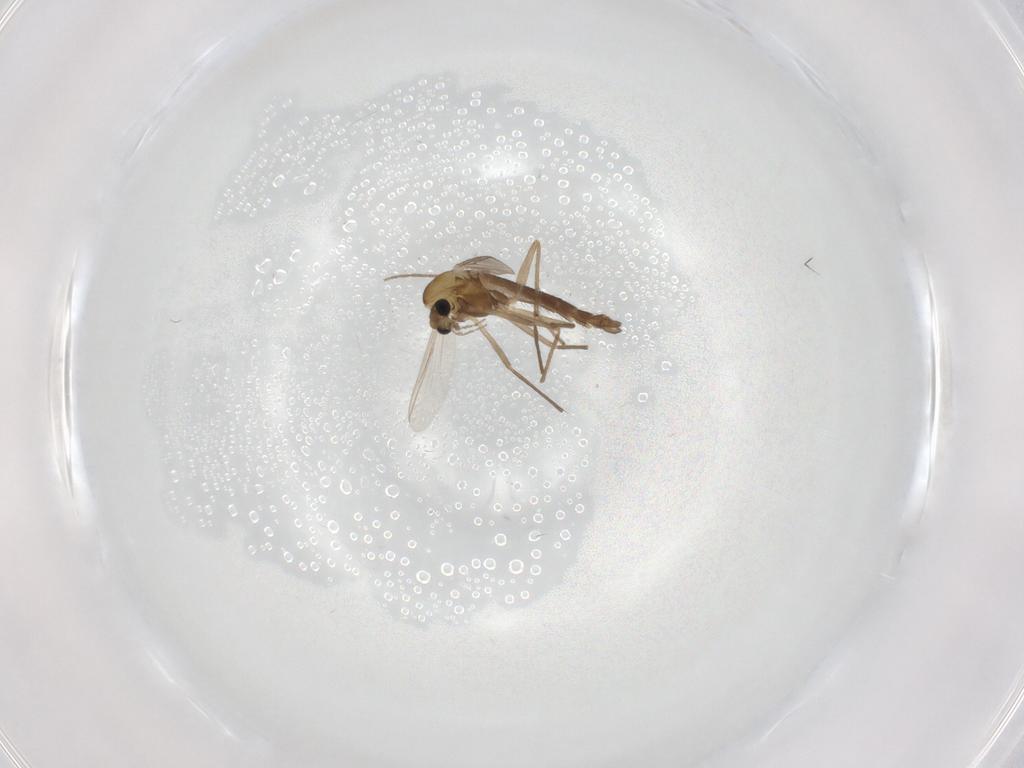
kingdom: Animalia
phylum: Arthropoda
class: Insecta
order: Diptera
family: Chironomidae
